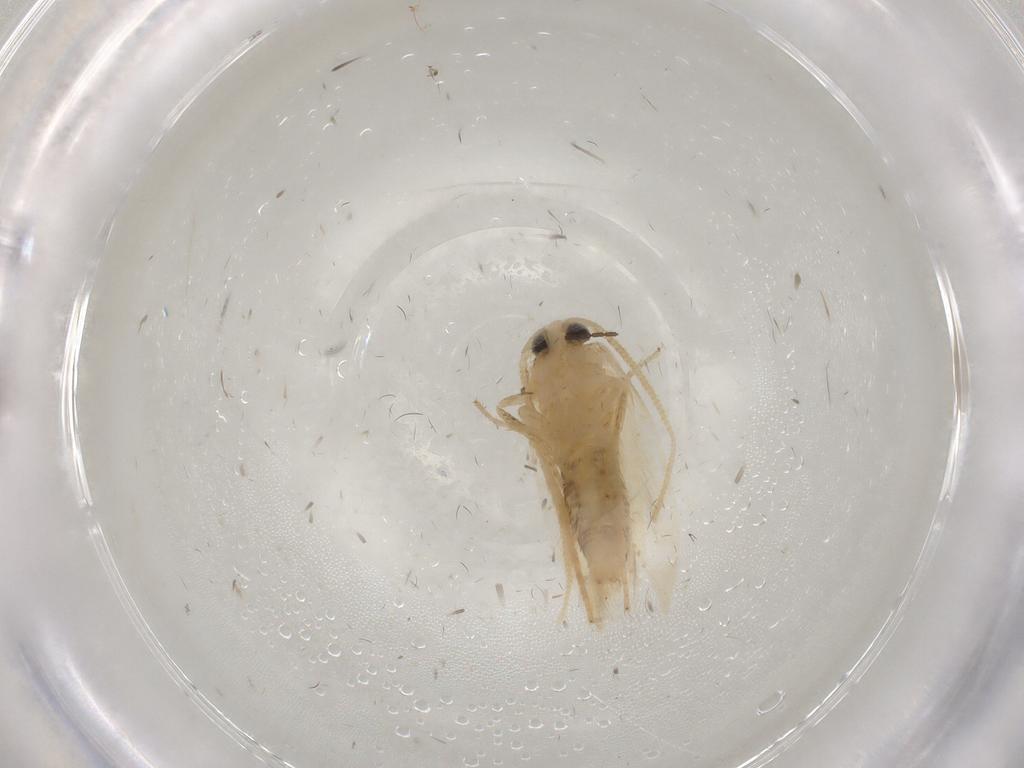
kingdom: Animalia
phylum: Arthropoda
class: Insecta
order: Lepidoptera
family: Opostegidae
